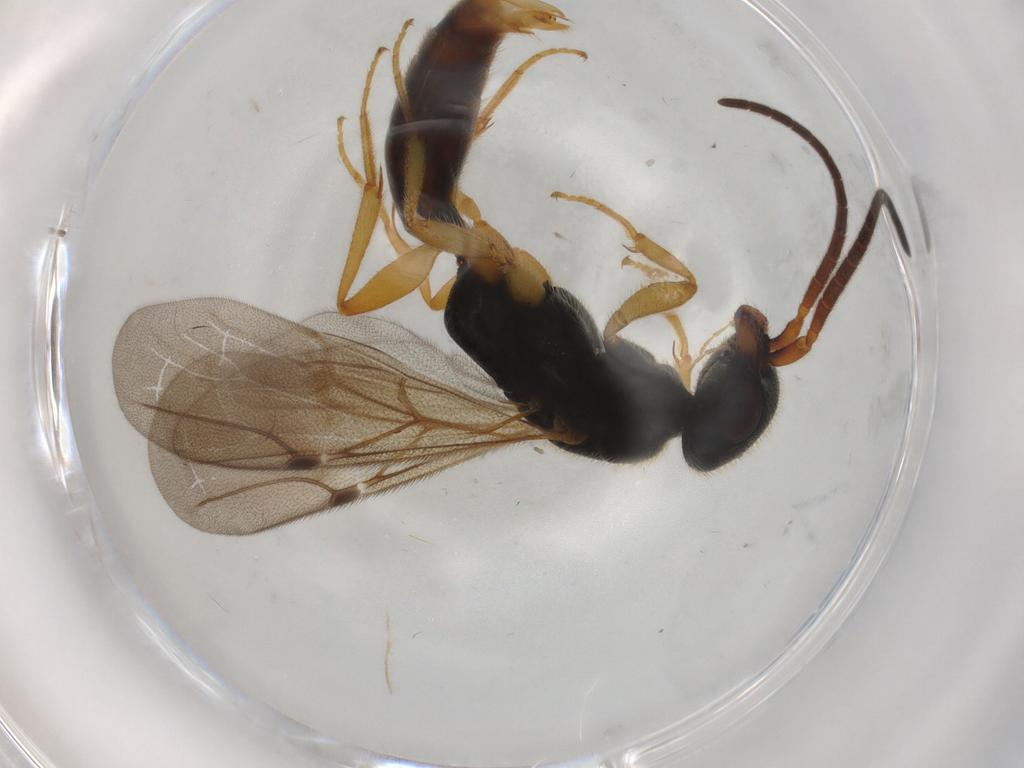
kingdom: Animalia
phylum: Arthropoda
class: Insecta
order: Hymenoptera
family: Bethylidae
